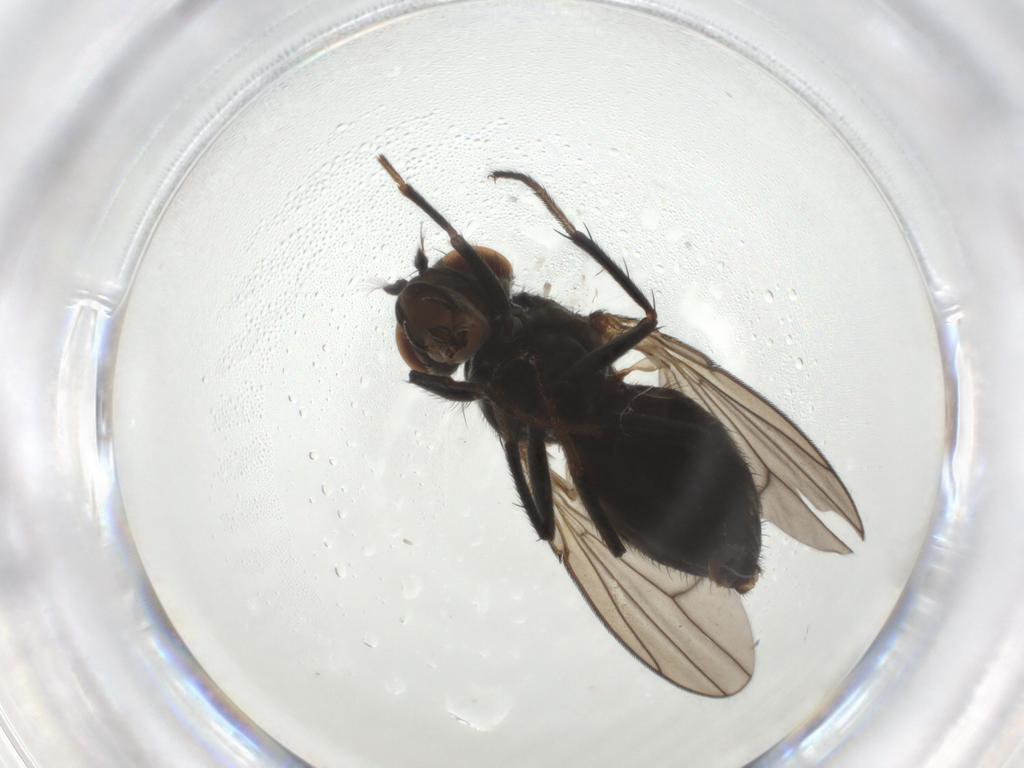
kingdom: Animalia
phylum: Arthropoda
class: Insecta
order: Diptera
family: Ephydridae
